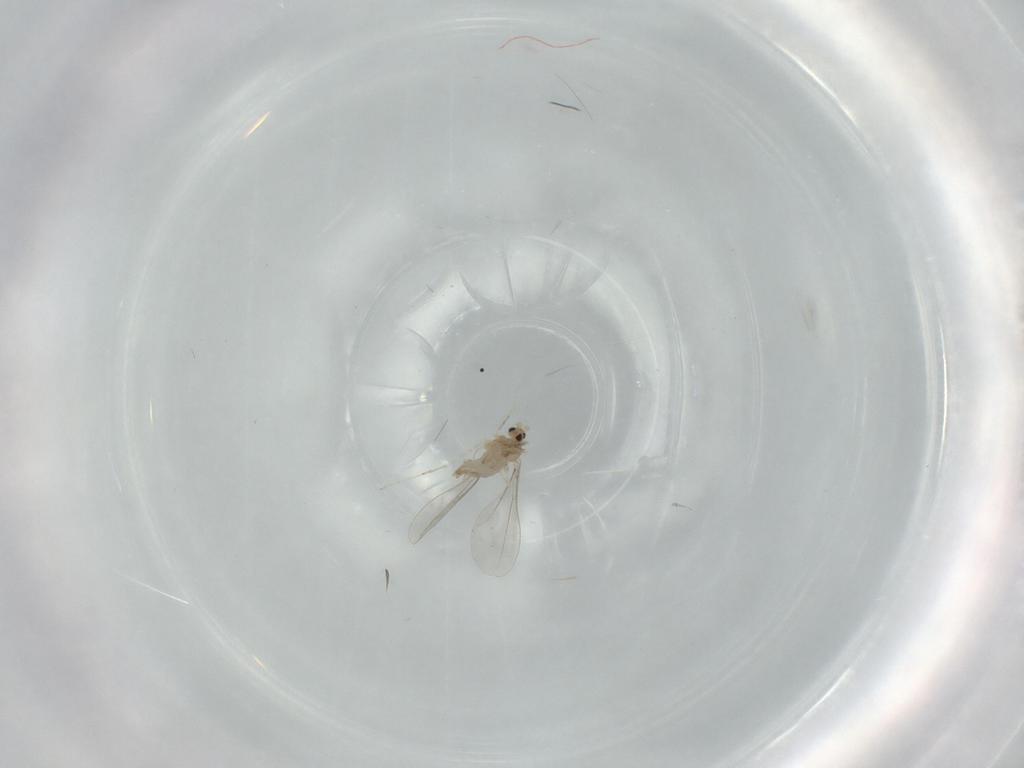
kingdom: Animalia
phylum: Arthropoda
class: Insecta
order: Diptera
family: Cecidomyiidae
